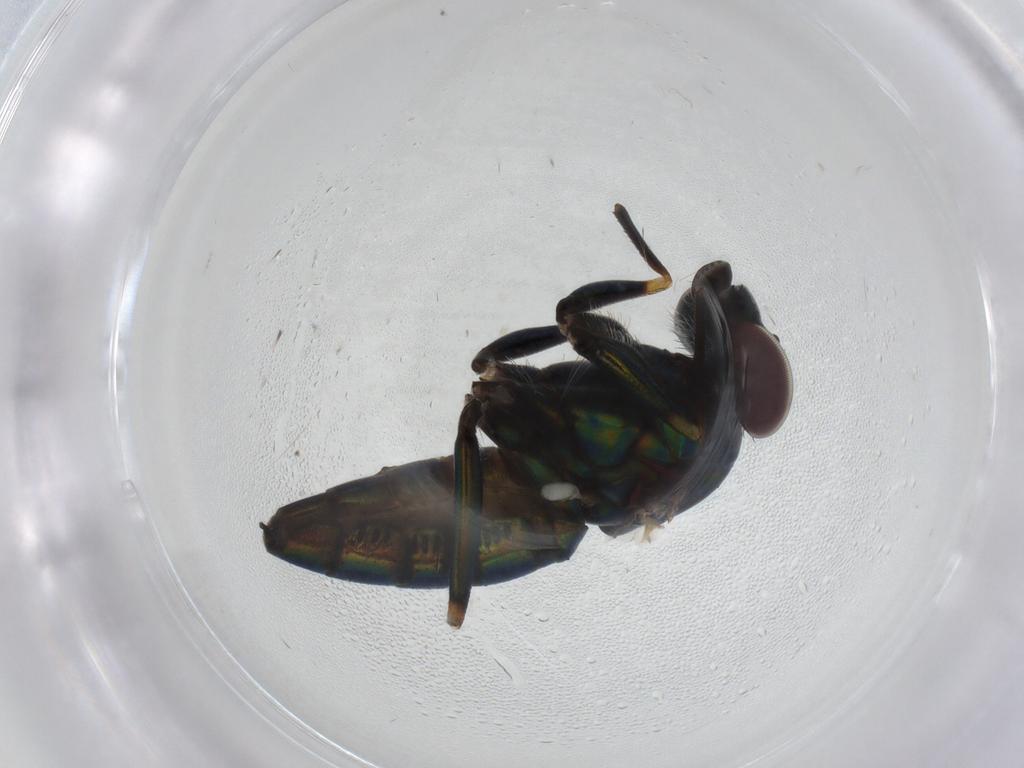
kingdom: Animalia
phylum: Arthropoda
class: Insecta
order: Diptera
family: Dolichopodidae
